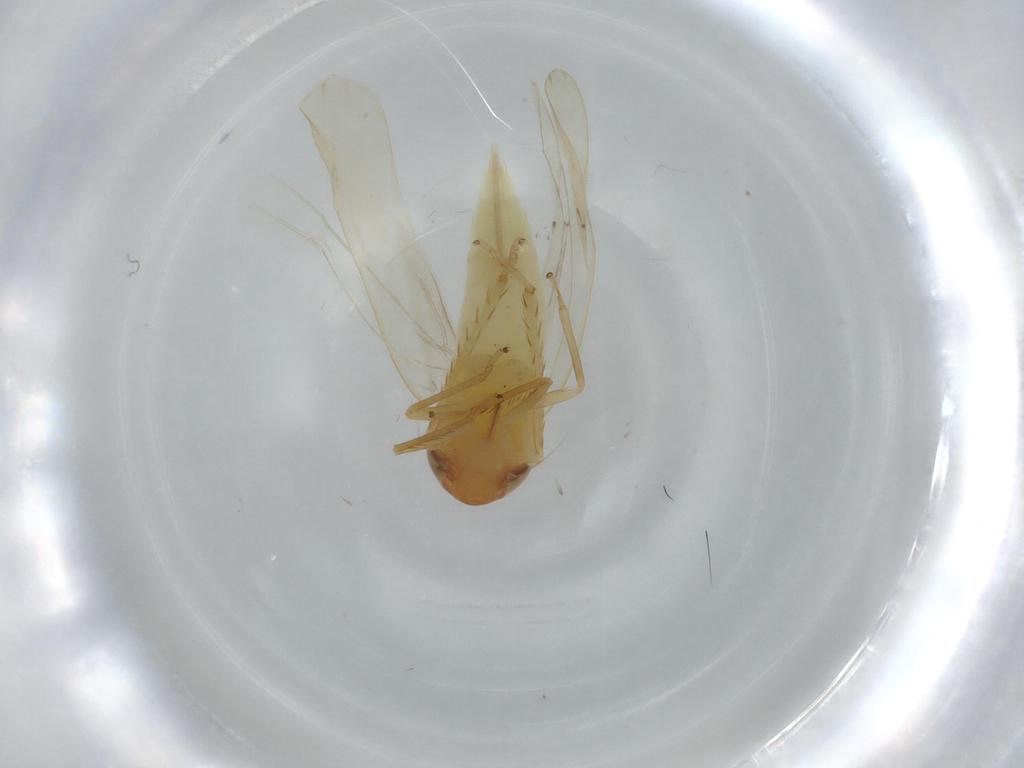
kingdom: Animalia
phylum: Arthropoda
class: Insecta
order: Hemiptera
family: Cicadellidae
